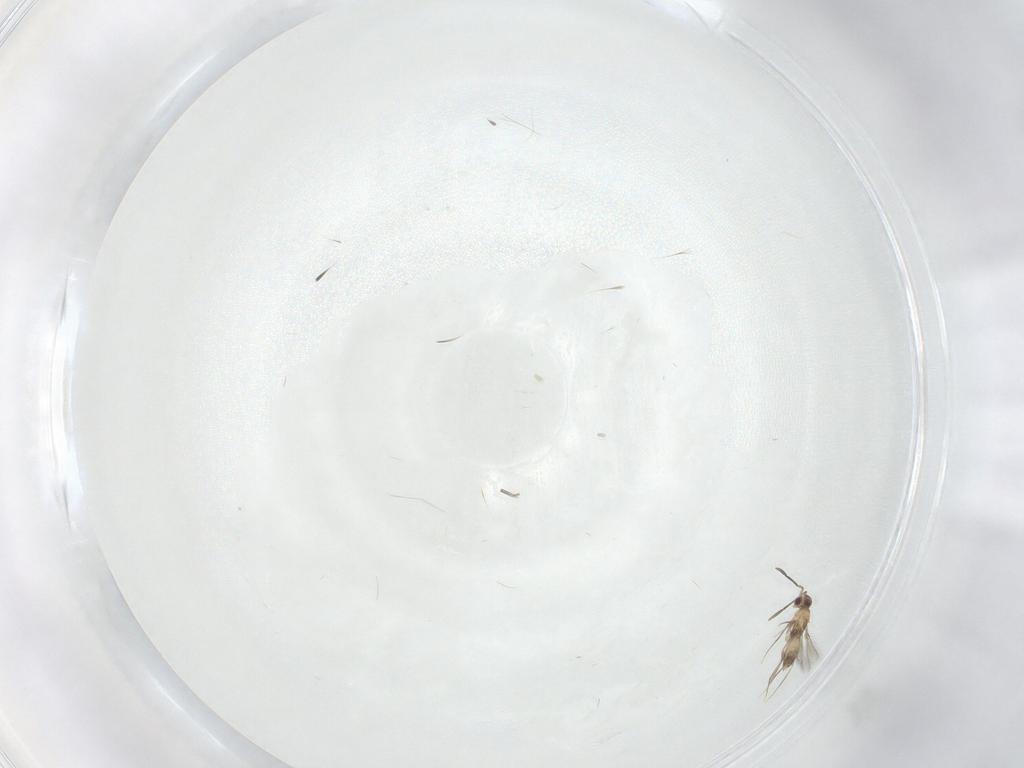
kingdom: Animalia
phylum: Arthropoda
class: Insecta
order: Hymenoptera
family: Mymaridae
